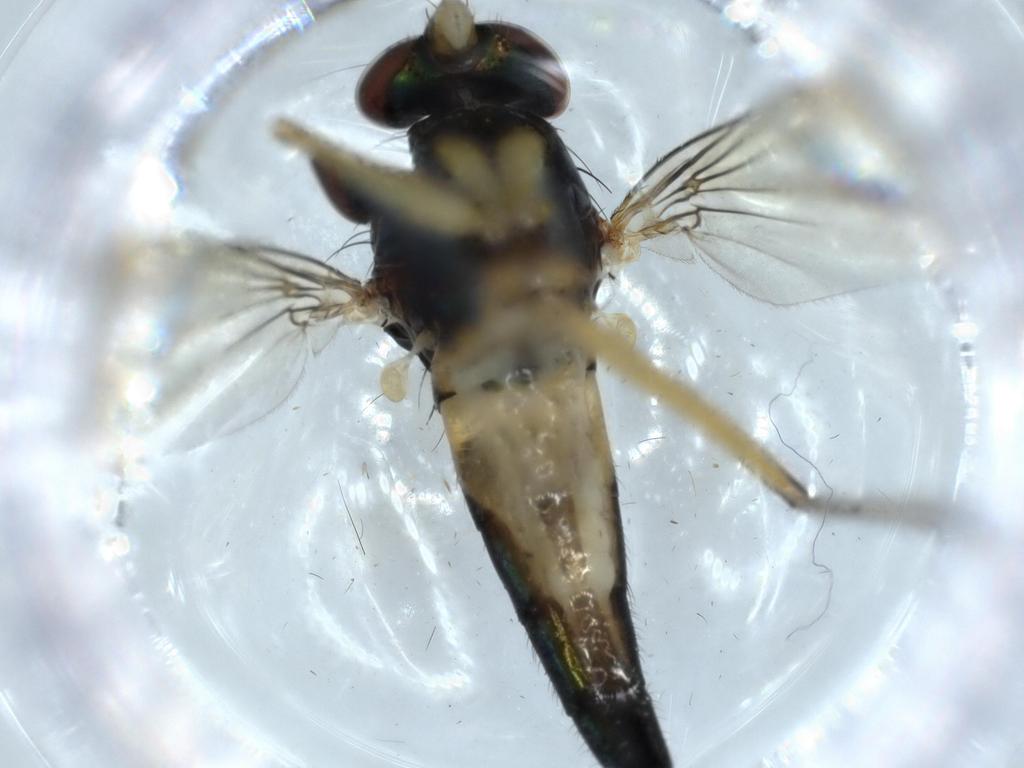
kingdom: Animalia
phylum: Arthropoda
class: Insecta
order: Diptera
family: Dolichopodidae
